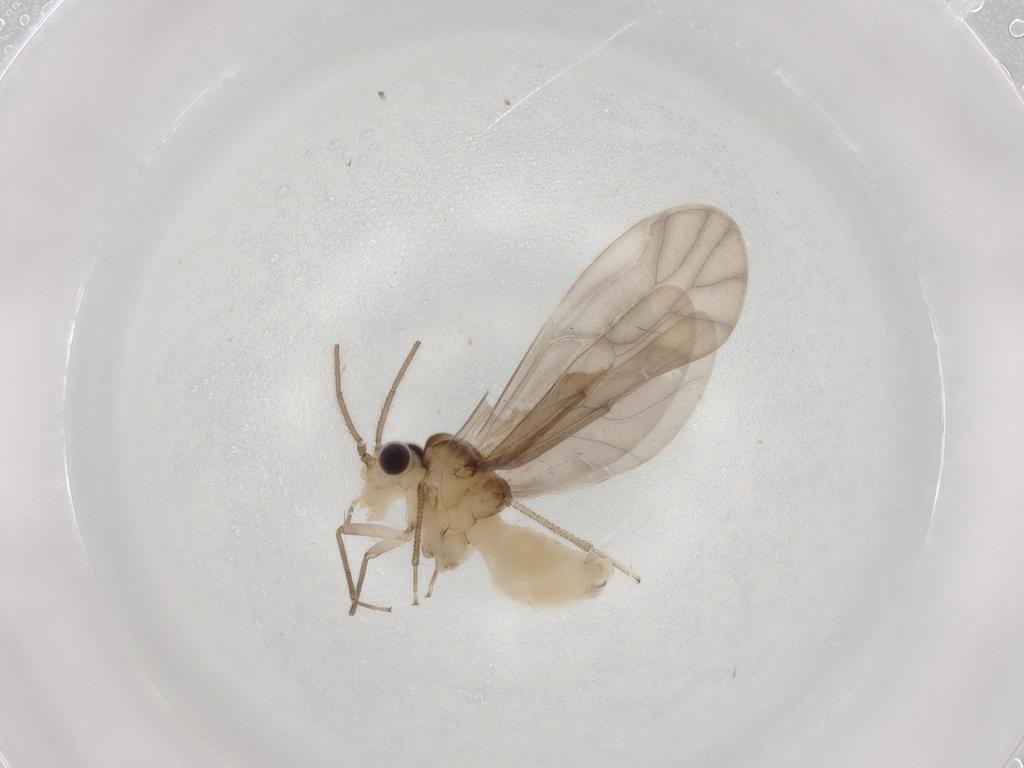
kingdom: Animalia
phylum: Arthropoda
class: Insecta
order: Psocodea
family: Caeciliusidae
